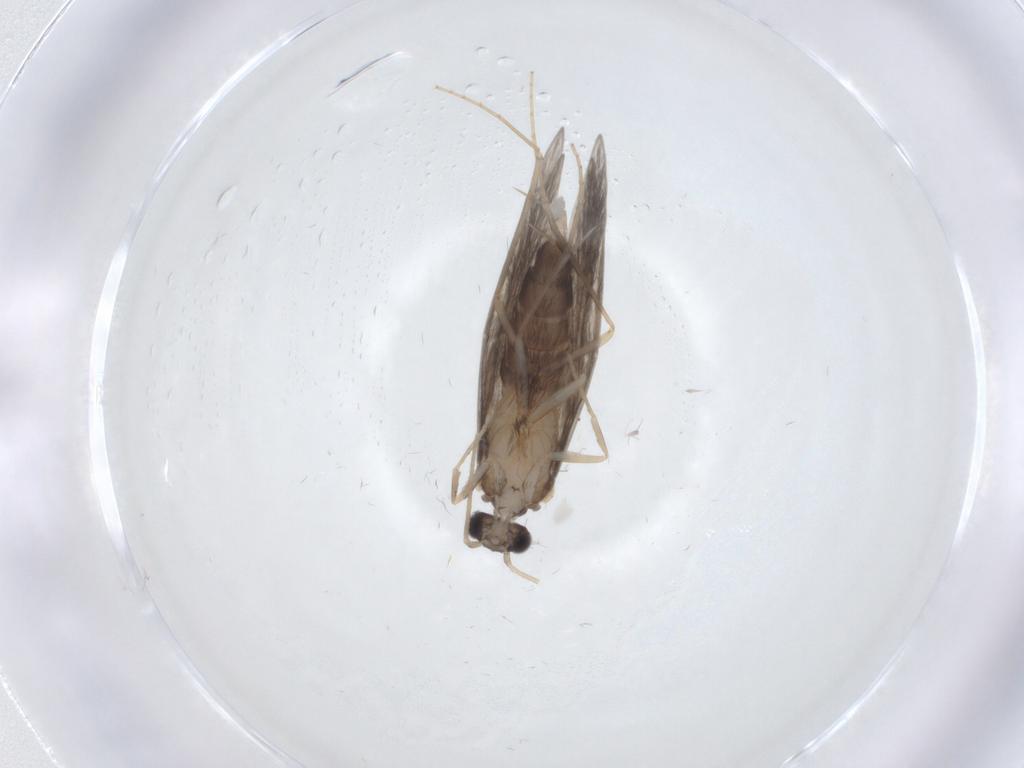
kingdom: Animalia
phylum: Arthropoda
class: Insecta
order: Trichoptera
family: Hydroptilidae
